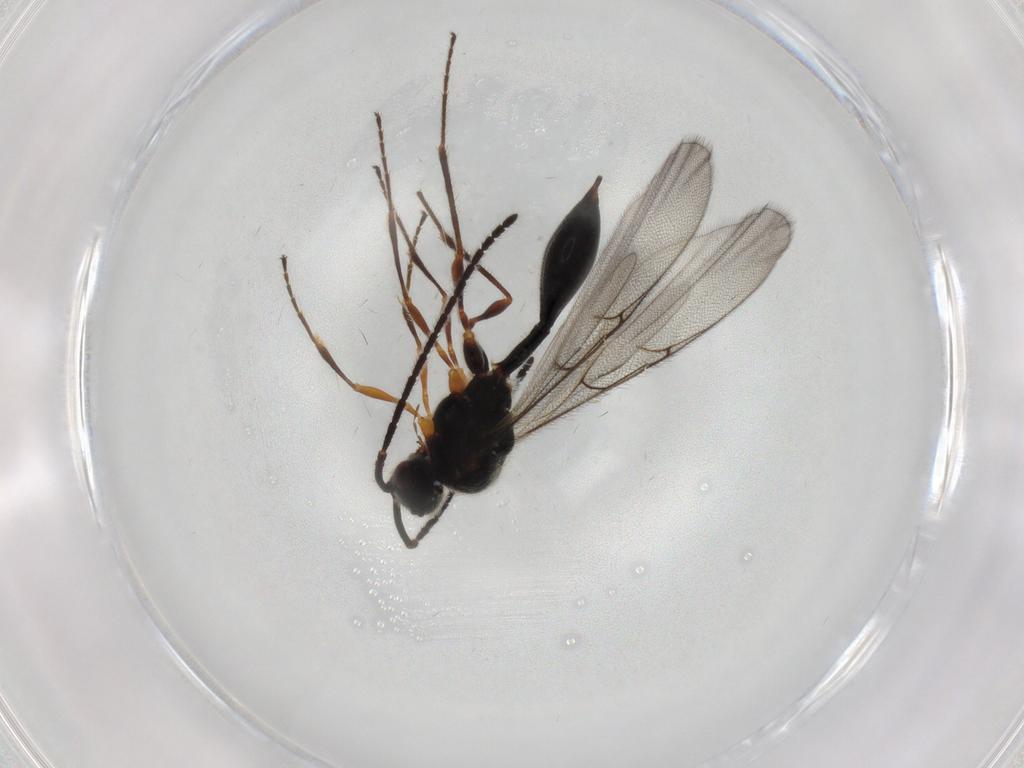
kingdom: Animalia
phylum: Arthropoda
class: Insecta
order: Hymenoptera
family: Diapriidae
